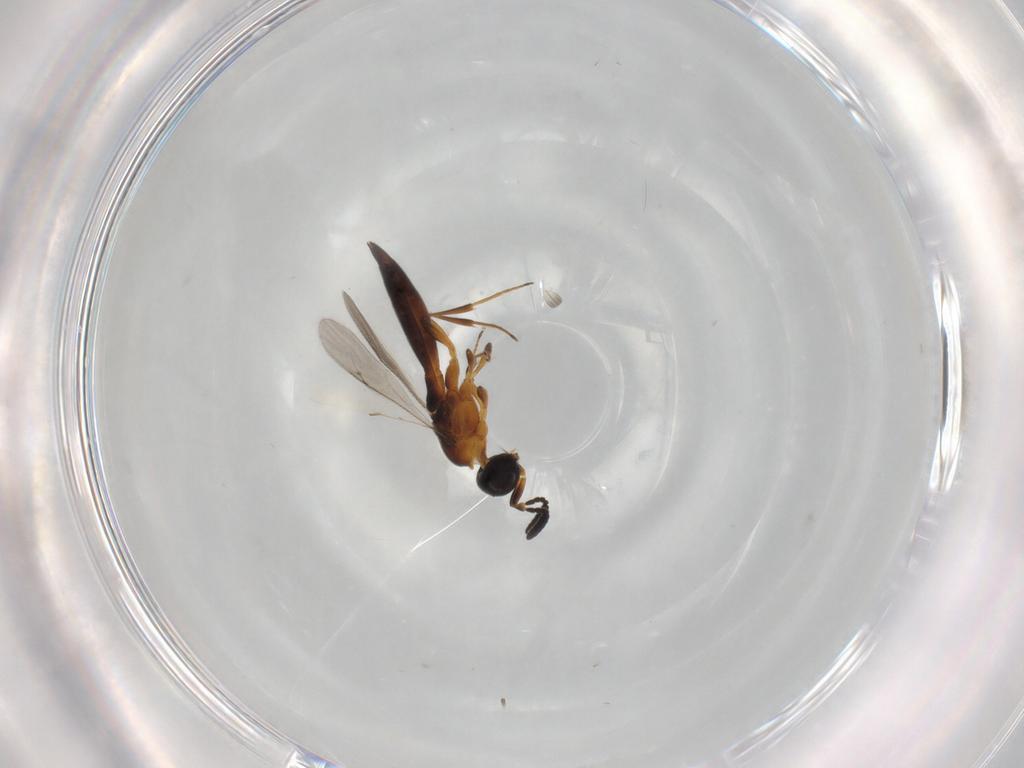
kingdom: Animalia
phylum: Arthropoda
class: Insecta
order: Hymenoptera
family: Scelionidae
